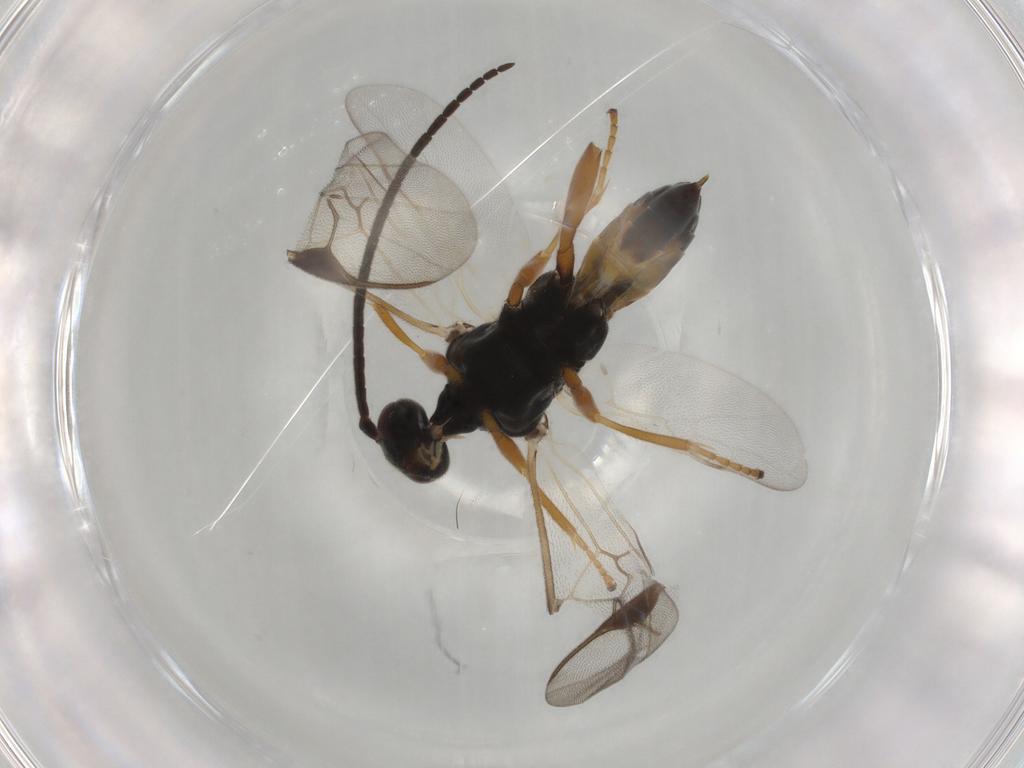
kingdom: Animalia
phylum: Arthropoda
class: Insecta
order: Hymenoptera
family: Braconidae
